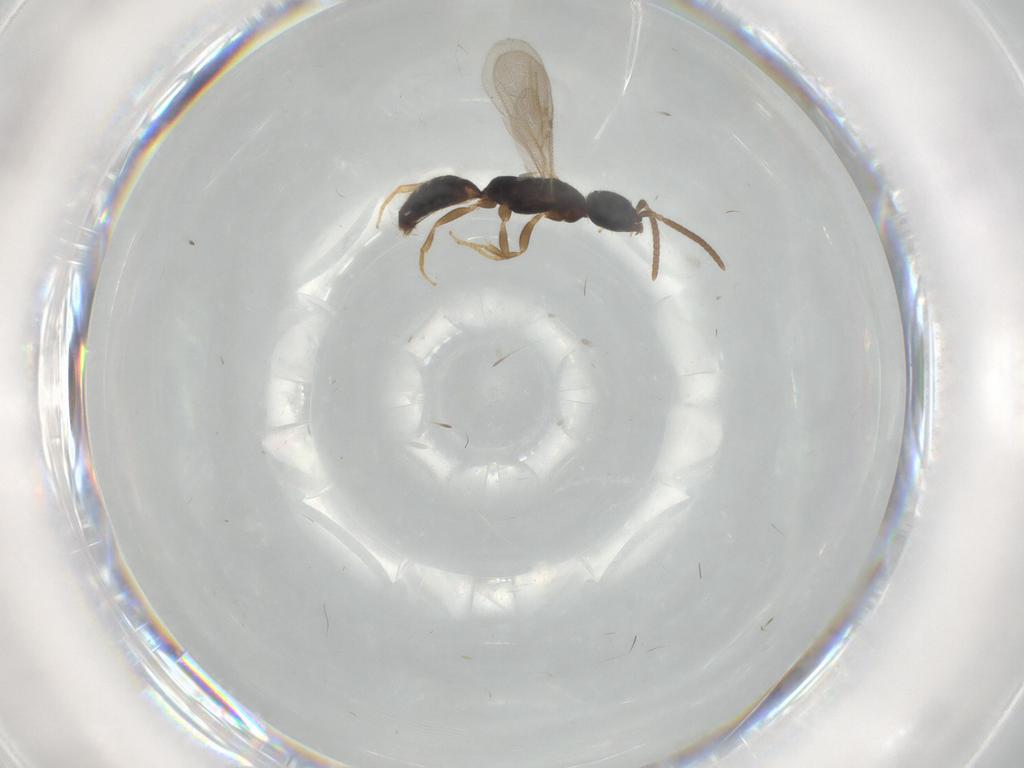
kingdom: Animalia
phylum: Arthropoda
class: Insecta
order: Hymenoptera
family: Bethylidae
